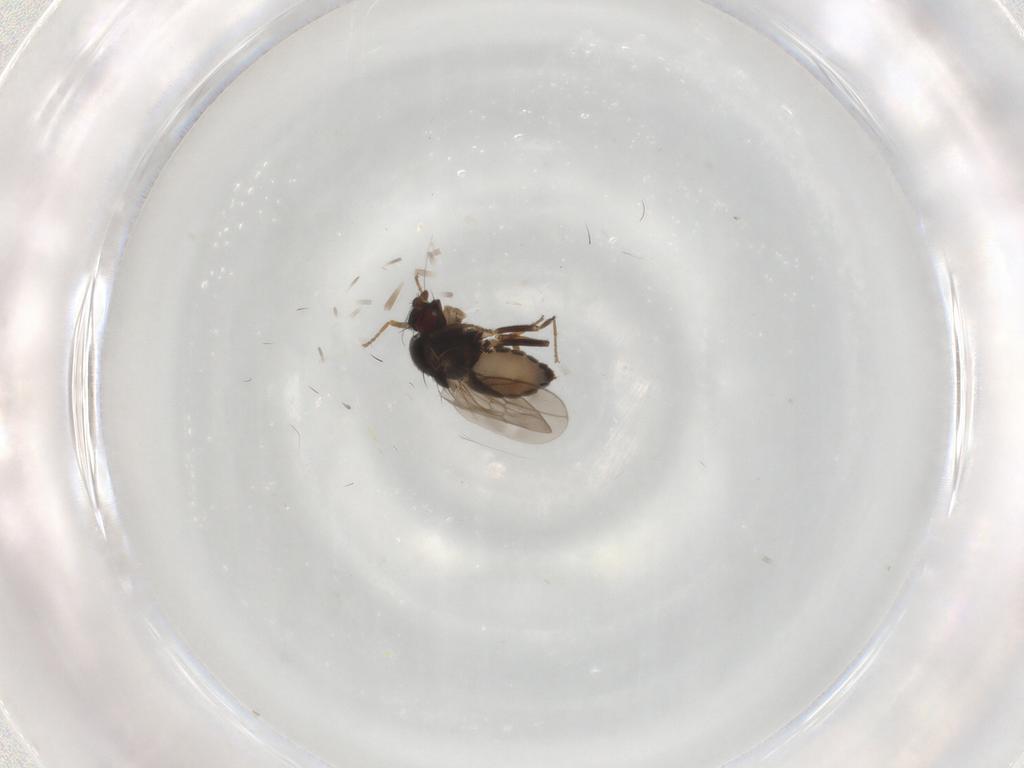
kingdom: Animalia
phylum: Arthropoda
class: Insecta
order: Diptera
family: Sphaeroceridae
